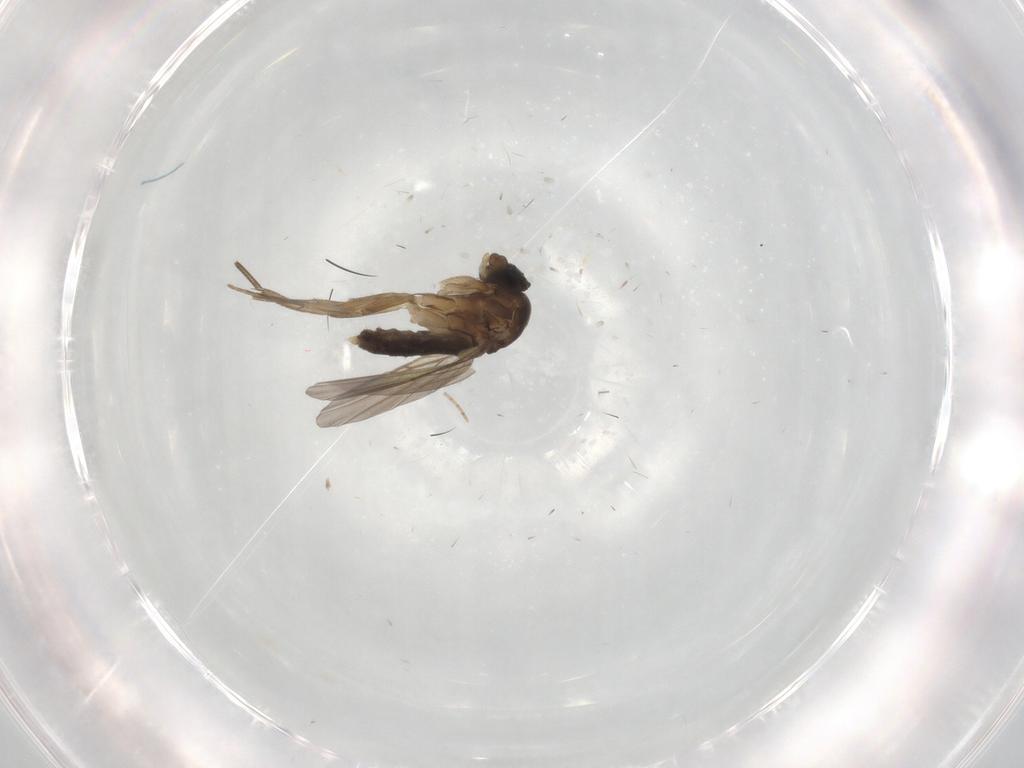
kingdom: Animalia
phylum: Arthropoda
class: Insecta
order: Diptera
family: Phoridae
